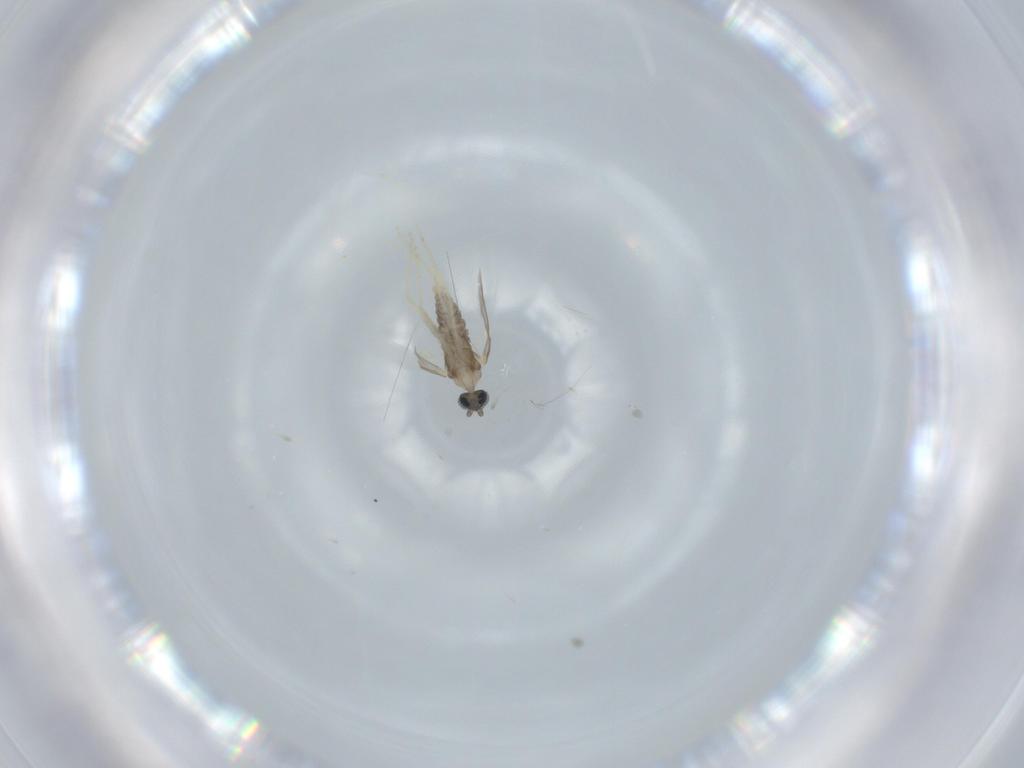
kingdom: Animalia
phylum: Arthropoda
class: Insecta
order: Diptera
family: Cecidomyiidae
